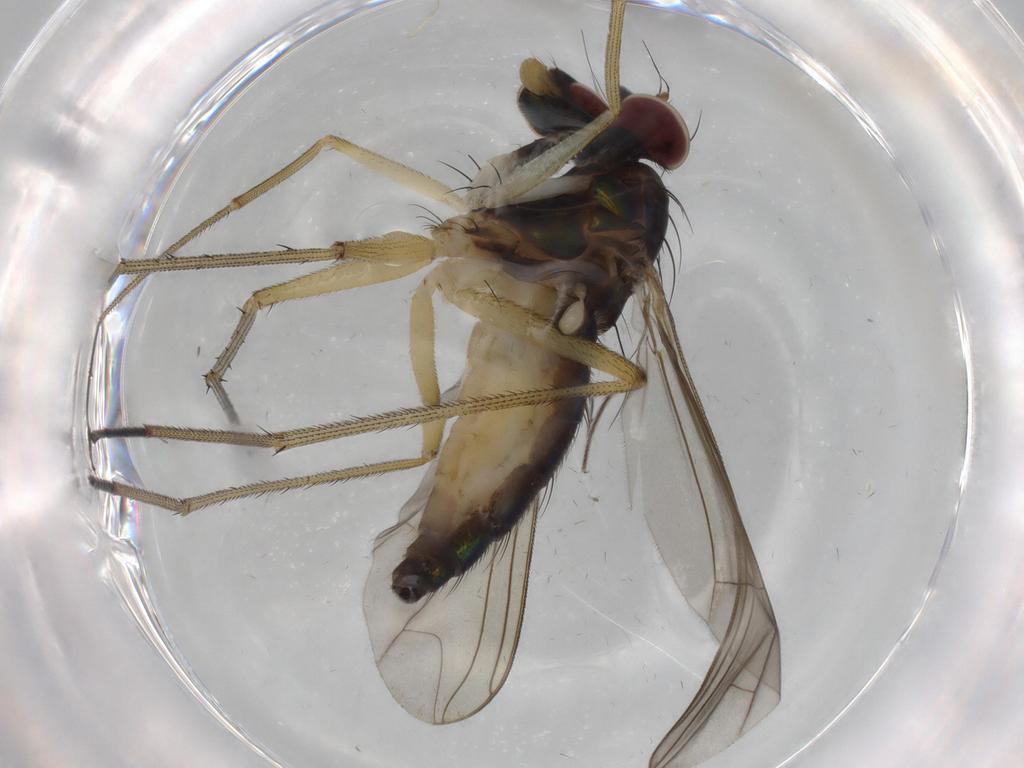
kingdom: Animalia
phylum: Arthropoda
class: Insecta
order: Diptera
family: Dolichopodidae
